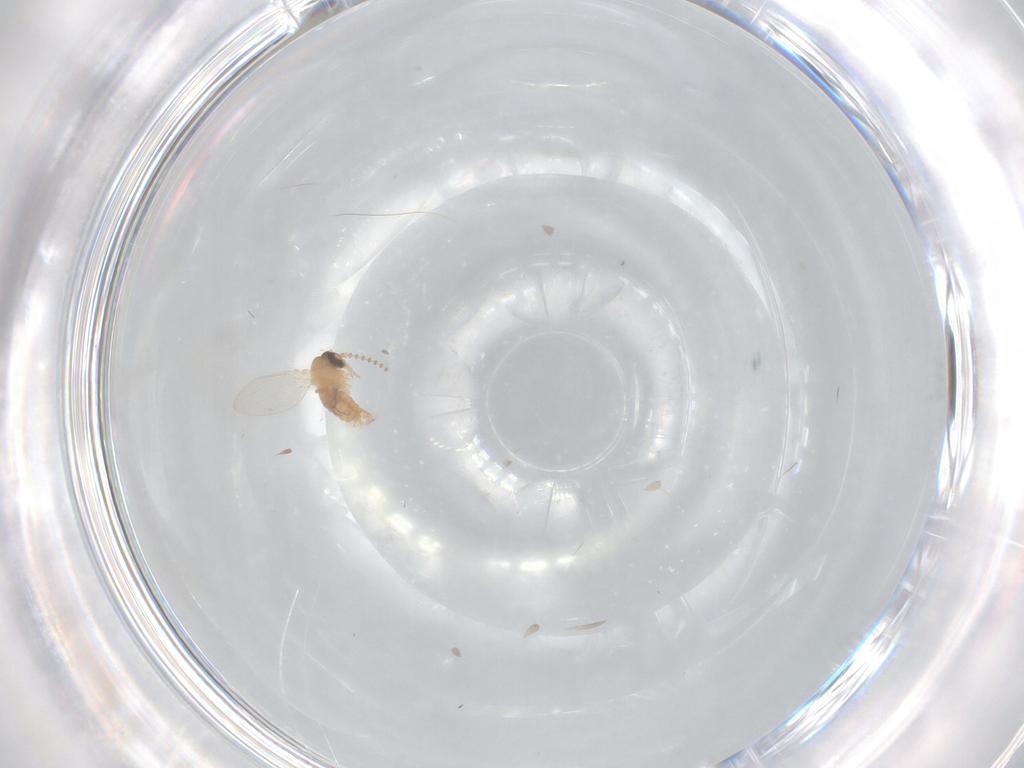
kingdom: Animalia
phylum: Arthropoda
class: Insecta
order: Diptera
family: Psychodidae
